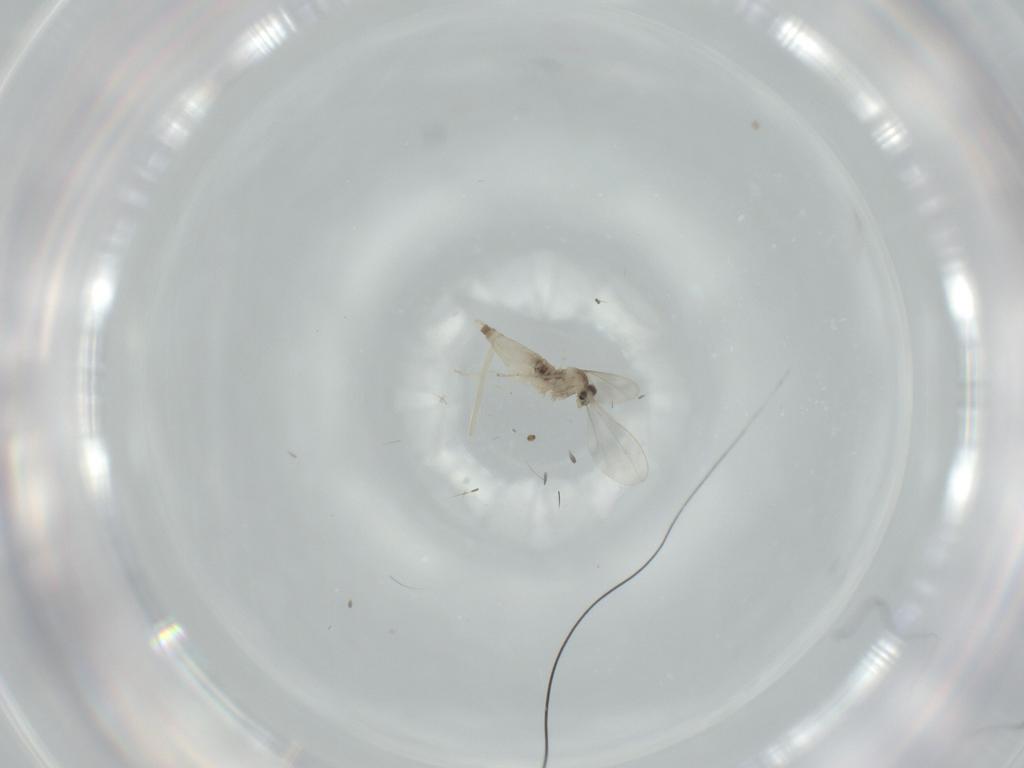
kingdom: Animalia
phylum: Arthropoda
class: Insecta
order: Diptera
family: Cecidomyiidae
